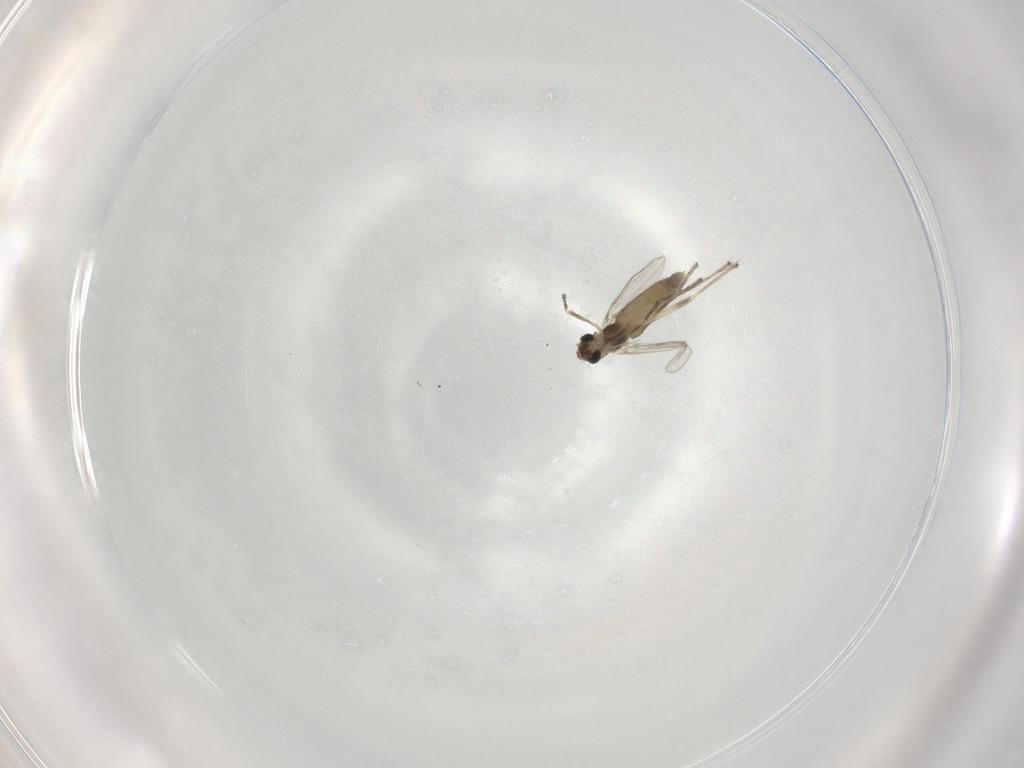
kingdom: Animalia
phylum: Arthropoda
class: Insecta
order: Diptera
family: Chironomidae
